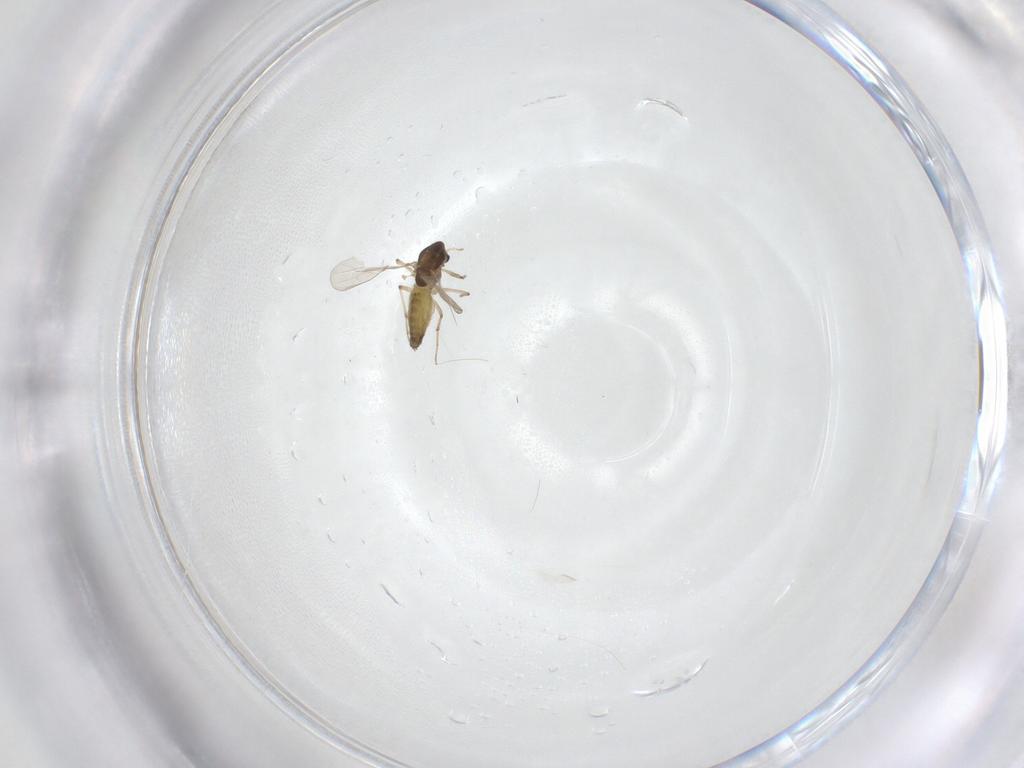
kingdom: Animalia
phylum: Arthropoda
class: Insecta
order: Diptera
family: Chironomidae
